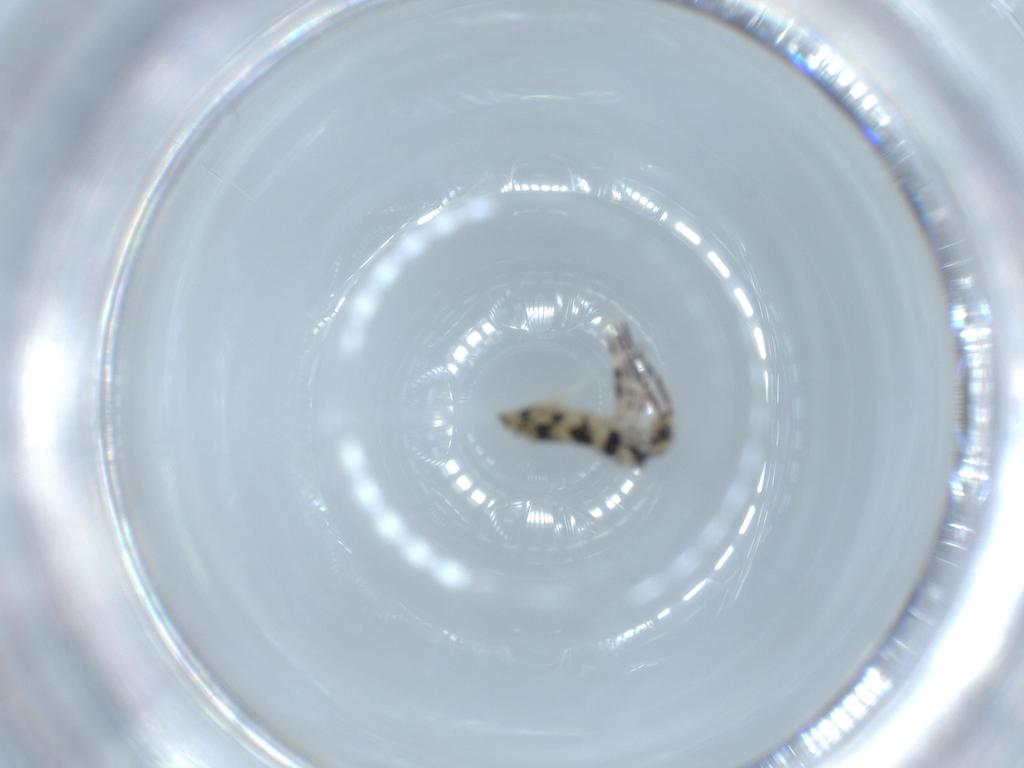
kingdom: Animalia
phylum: Arthropoda
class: Collembola
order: Entomobryomorpha
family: Entomobryidae
